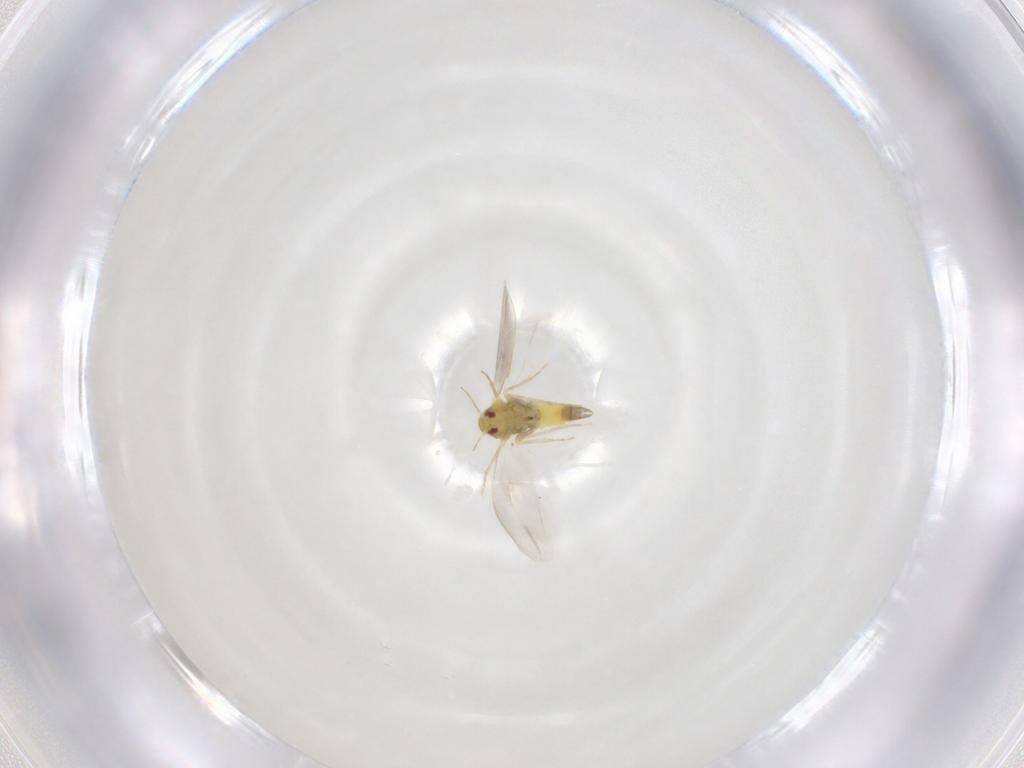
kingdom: Animalia
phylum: Arthropoda
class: Insecta
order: Hemiptera
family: Aleyrodidae
